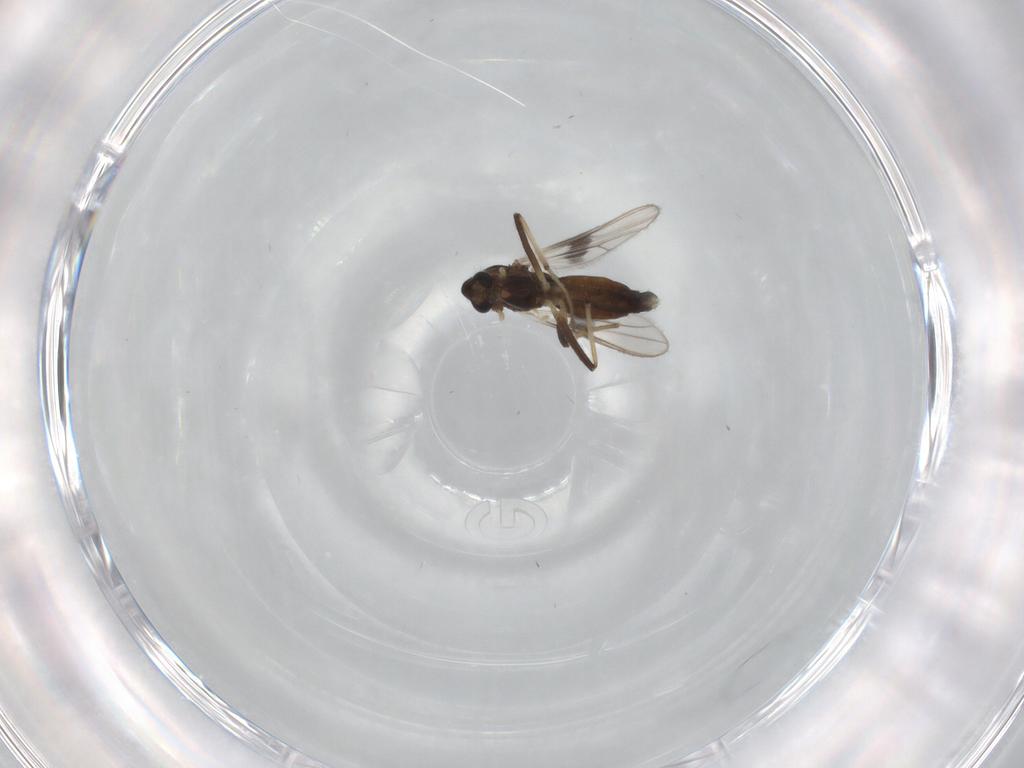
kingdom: Animalia
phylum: Arthropoda
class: Insecta
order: Diptera
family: Chironomidae
